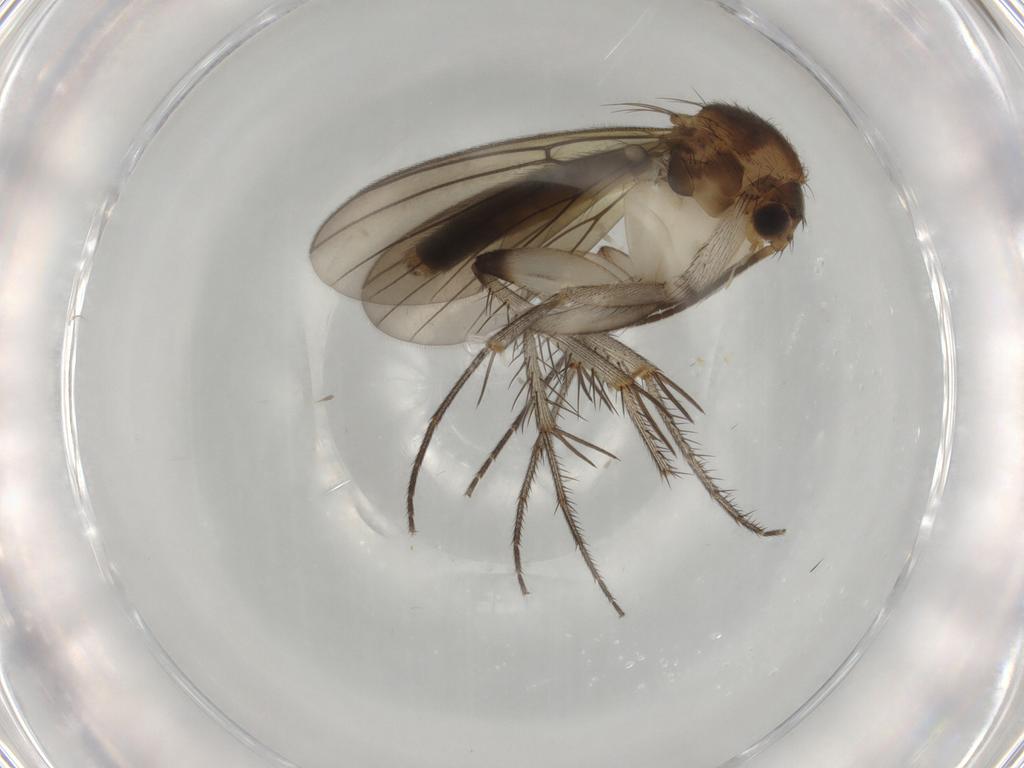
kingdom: Animalia
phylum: Arthropoda
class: Insecta
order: Diptera
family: Mycetophilidae
